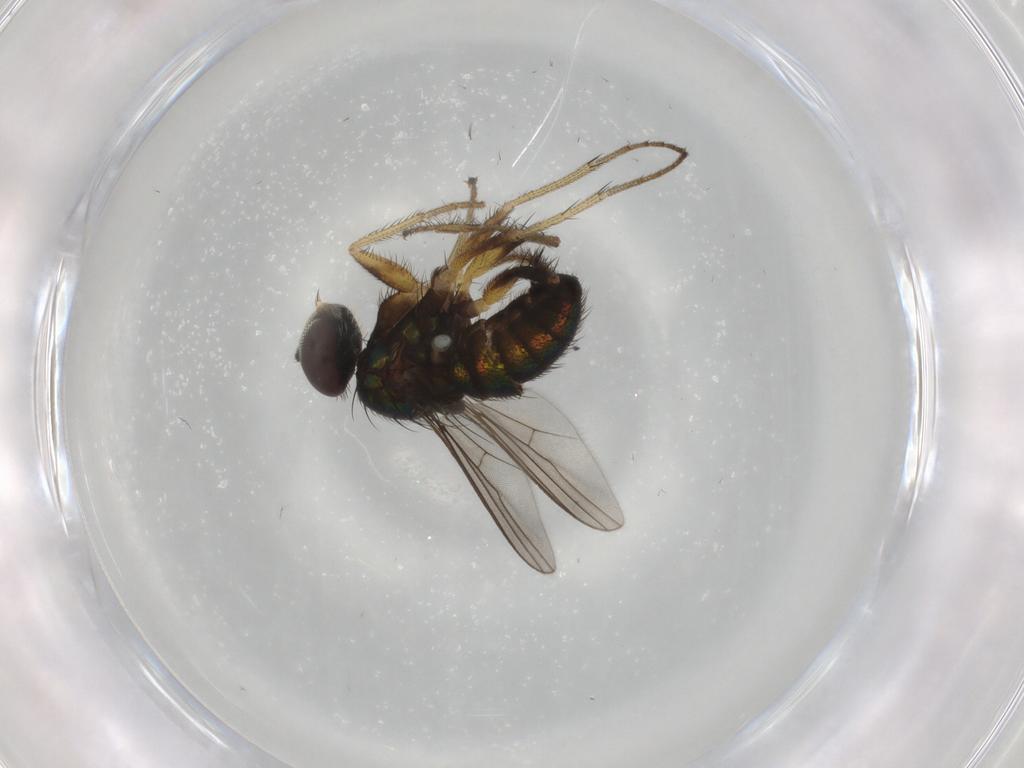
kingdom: Animalia
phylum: Arthropoda
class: Insecta
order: Diptera
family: Dolichopodidae
